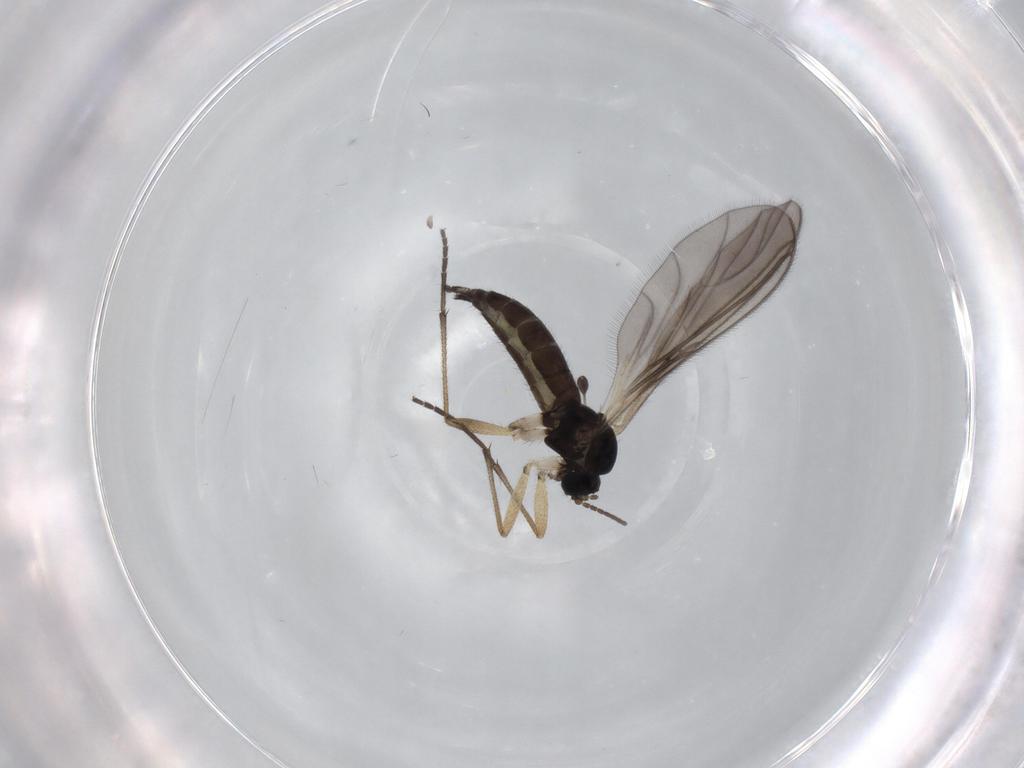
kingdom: Animalia
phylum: Arthropoda
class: Insecta
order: Diptera
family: Sciaridae
